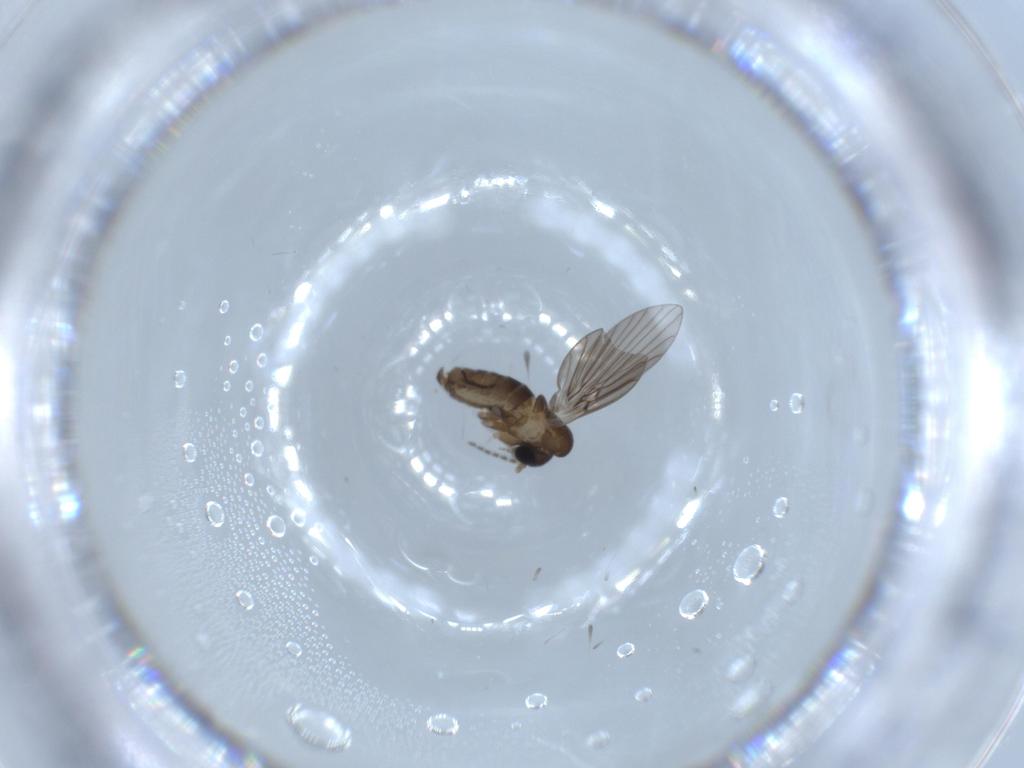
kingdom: Animalia
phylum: Arthropoda
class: Insecta
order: Diptera
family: Psychodidae
